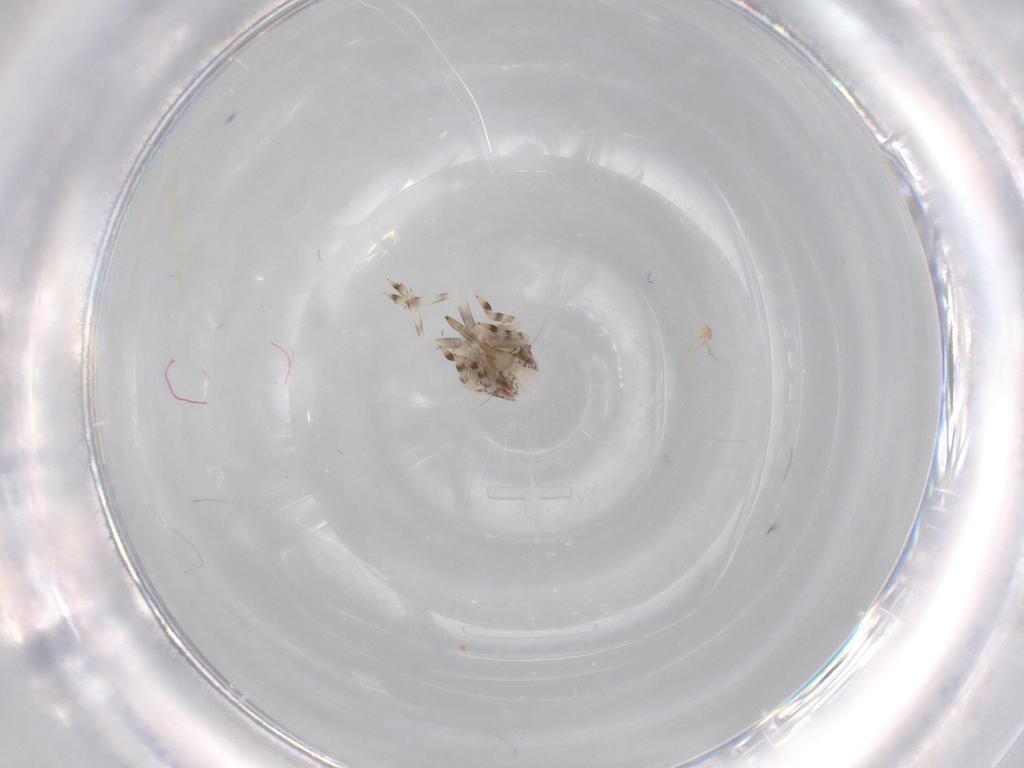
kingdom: Animalia
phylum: Arthropoda
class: Insecta
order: Hemiptera
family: Acanaloniidae
